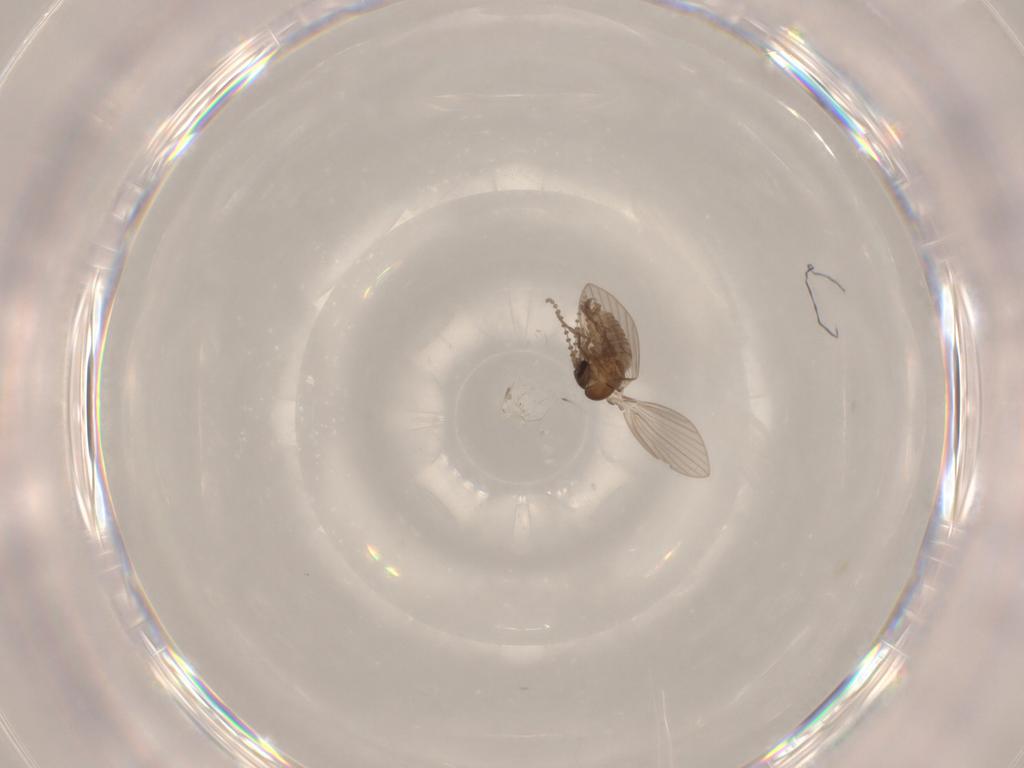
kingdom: Animalia
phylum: Arthropoda
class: Insecta
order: Diptera
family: Psychodidae
